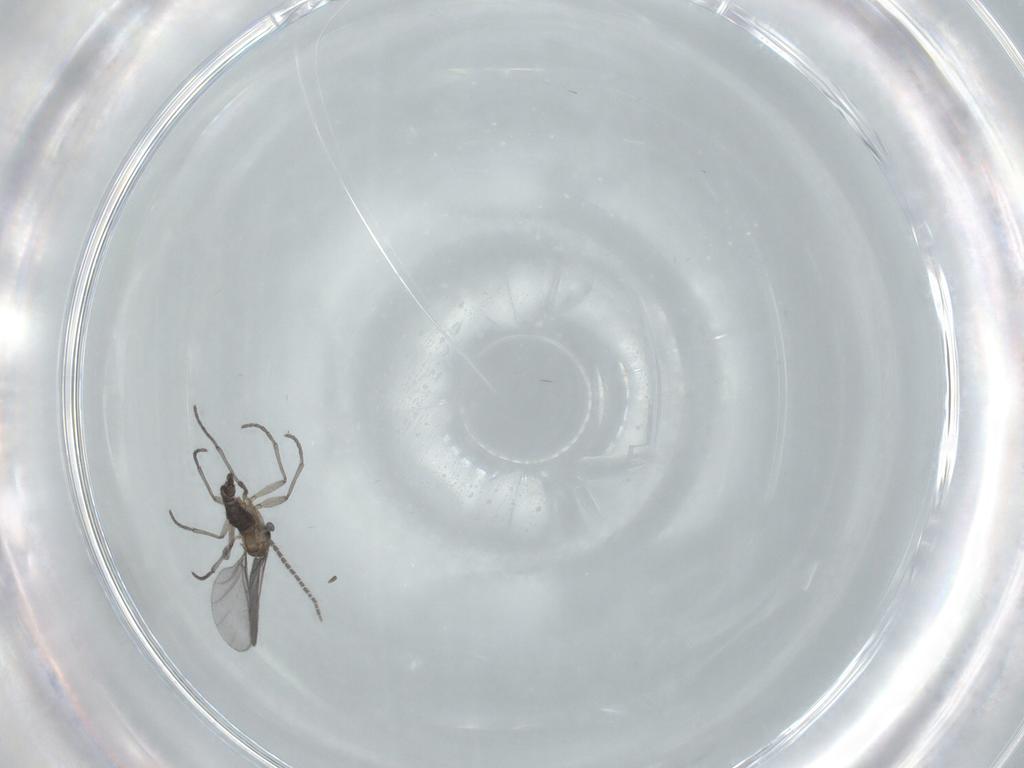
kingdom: Animalia
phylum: Arthropoda
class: Insecta
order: Diptera
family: Sciaridae
